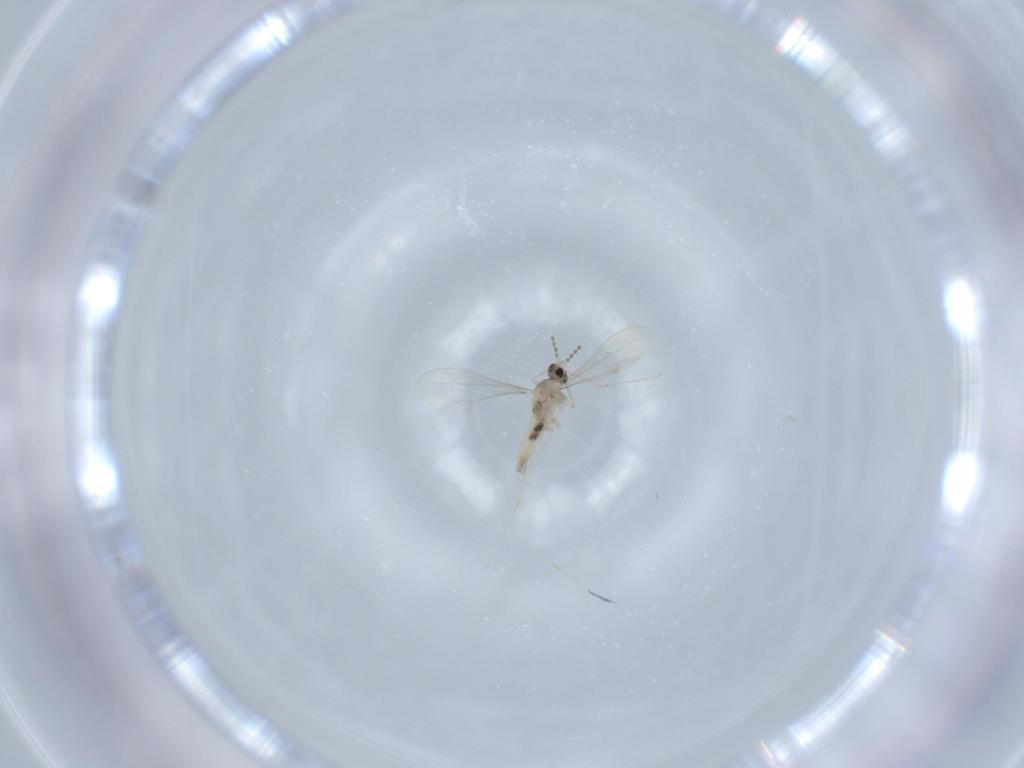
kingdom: Animalia
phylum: Arthropoda
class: Insecta
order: Diptera
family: Cecidomyiidae
